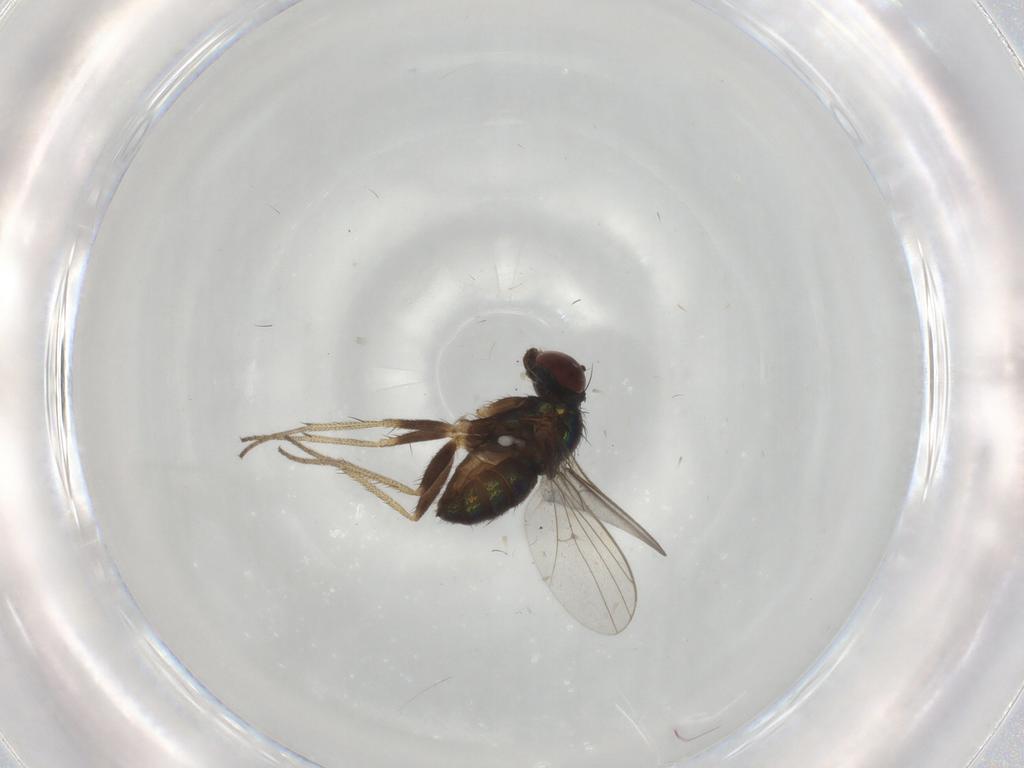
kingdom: Animalia
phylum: Arthropoda
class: Insecta
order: Diptera
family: Dolichopodidae
